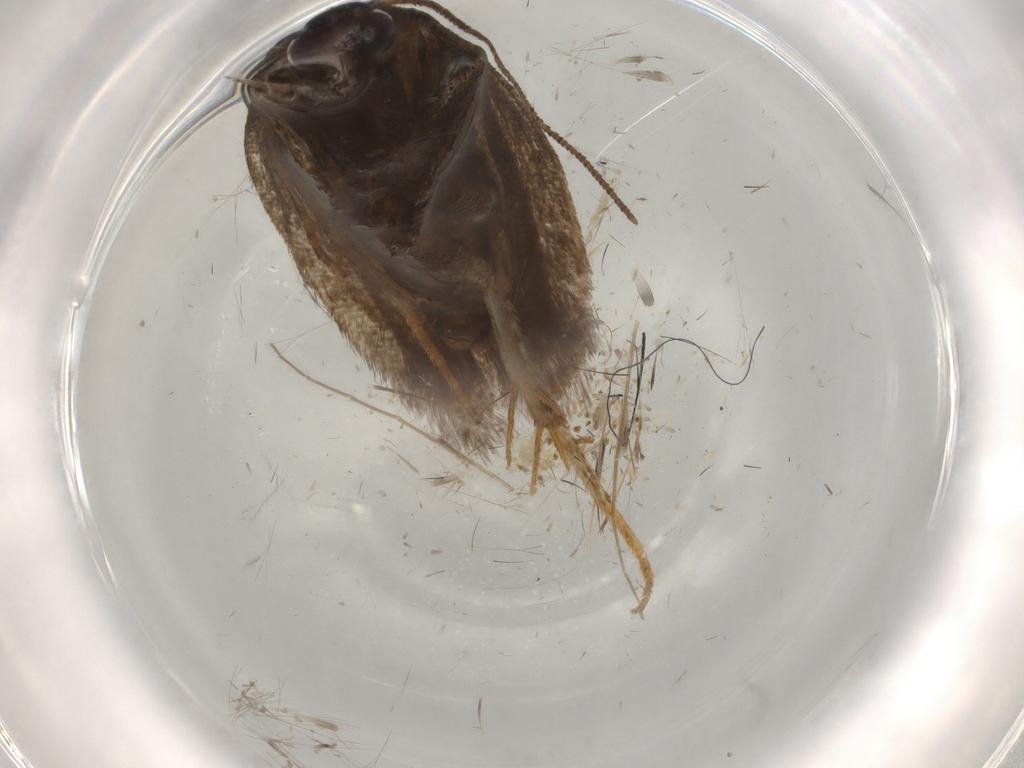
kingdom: Animalia
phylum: Arthropoda
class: Insecta
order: Lepidoptera
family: Gelechiidae
